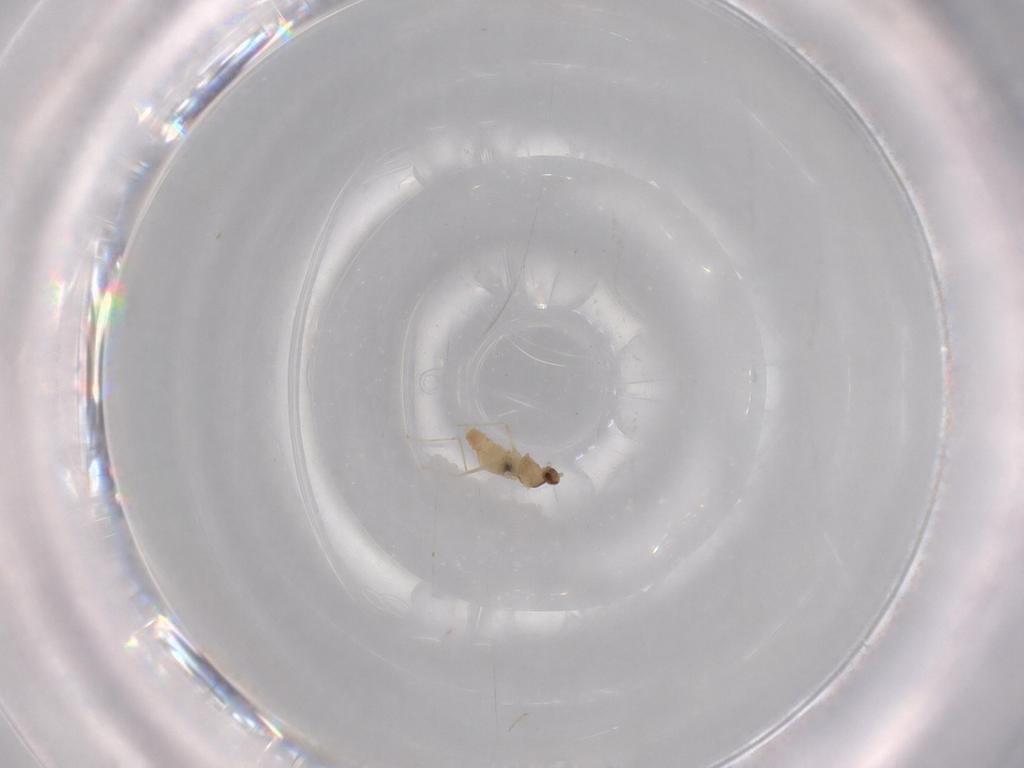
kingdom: Animalia
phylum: Arthropoda
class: Insecta
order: Diptera
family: Cecidomyiidae
